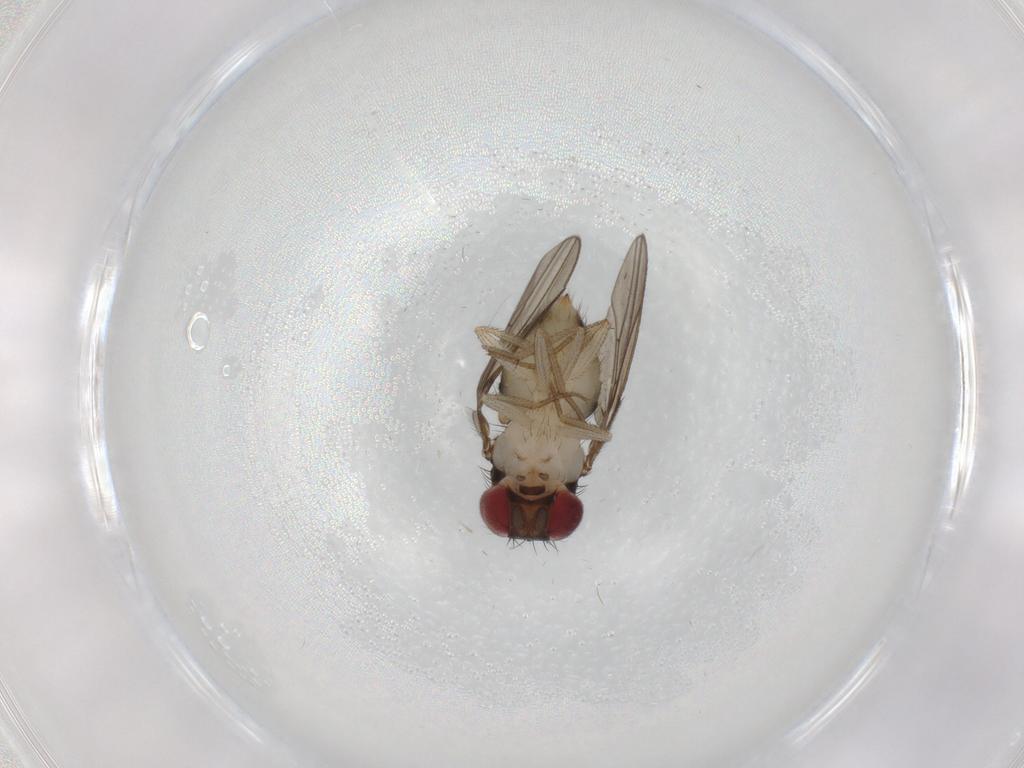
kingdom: Animalia
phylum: Arthropoda
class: Insecta
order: Diptera
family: Drosophilidae
